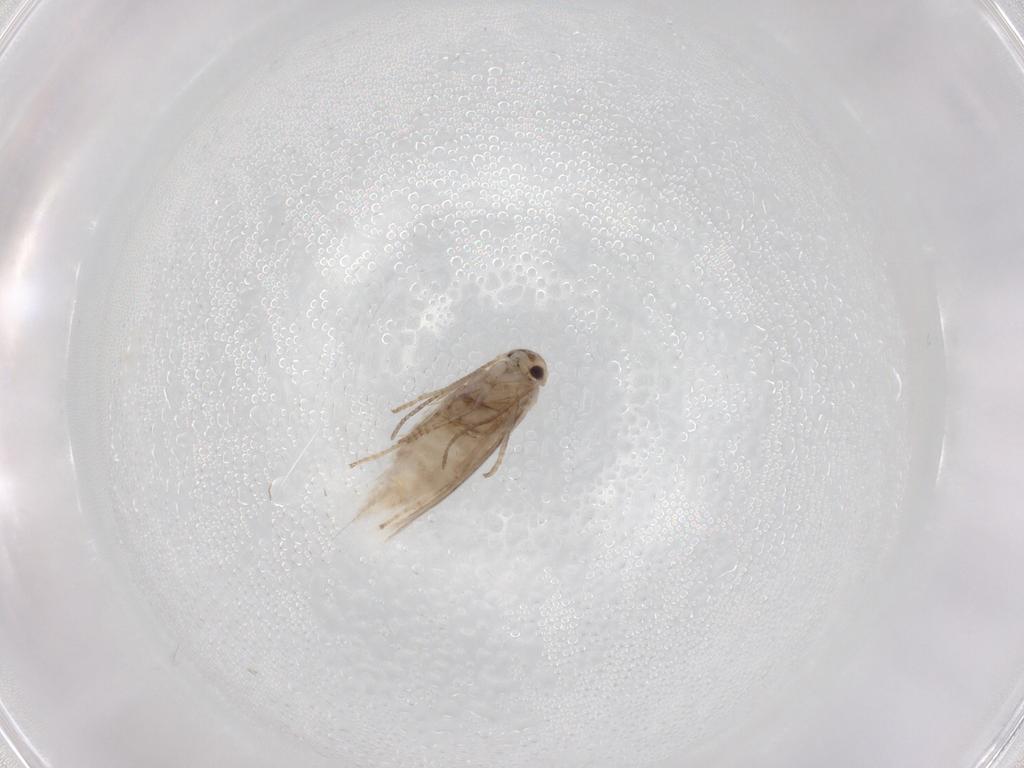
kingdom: Animalia
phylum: Arthropoda
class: Insecta
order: Lepidoptera
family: Depressariidae
